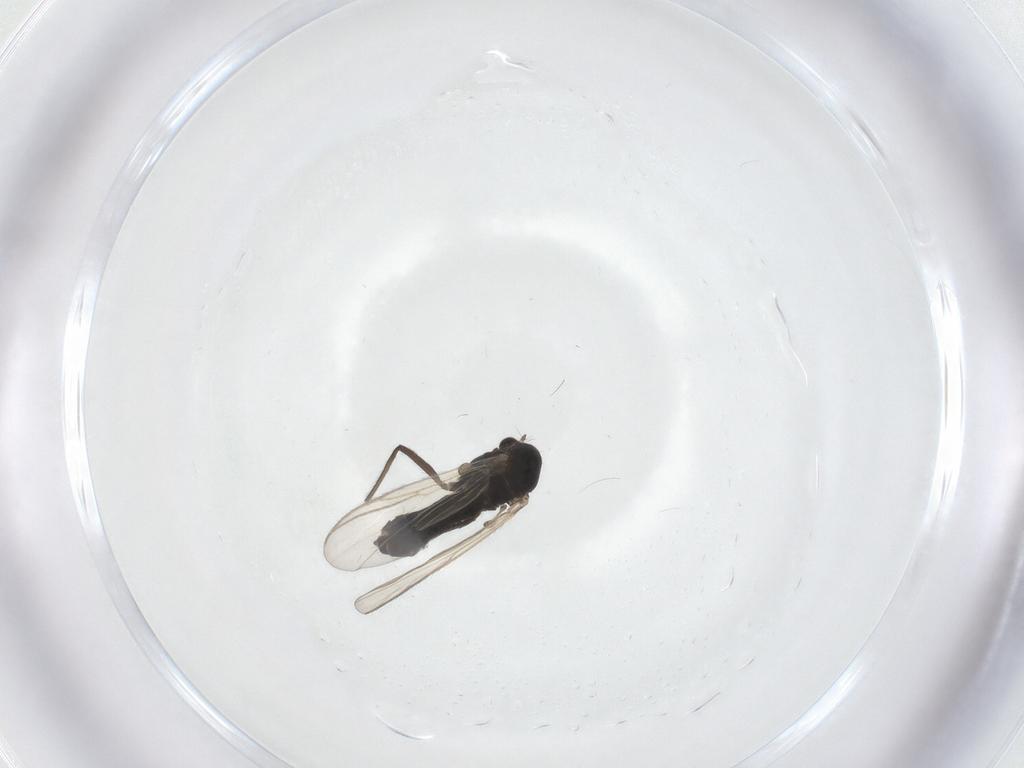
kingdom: Animalia
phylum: Arthropoda
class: Insecta
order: Diptera
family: Chironomidae
